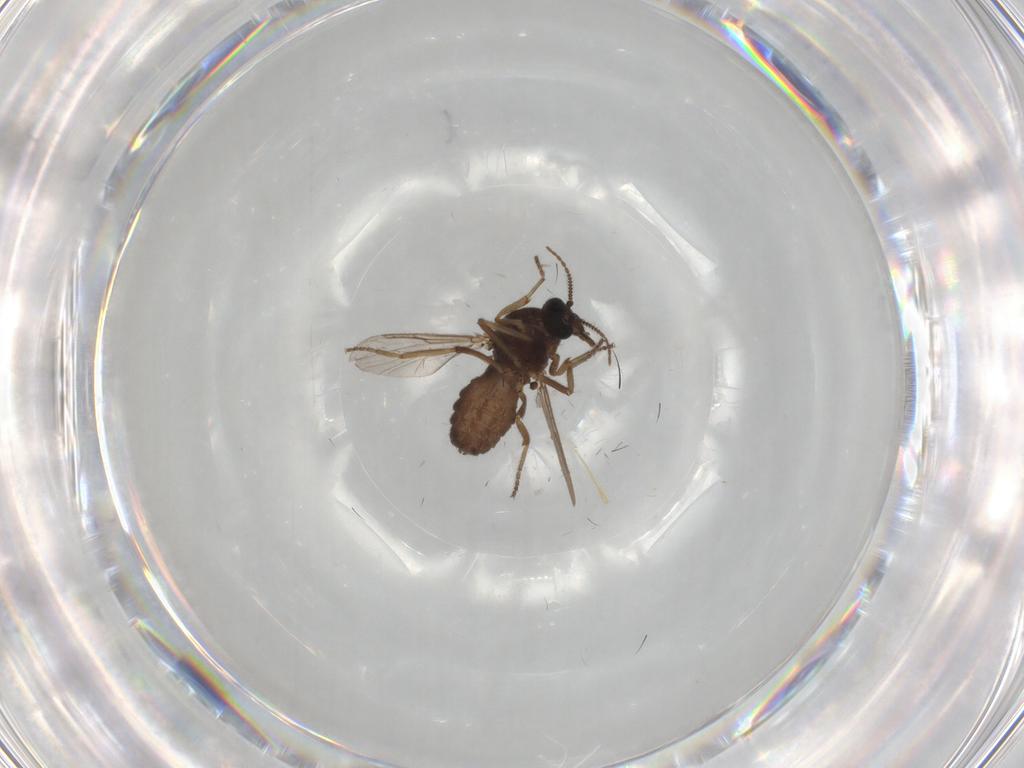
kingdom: Animalia
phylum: Arthropoda
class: Insecta
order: Diptera
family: Ceratopogonidae
